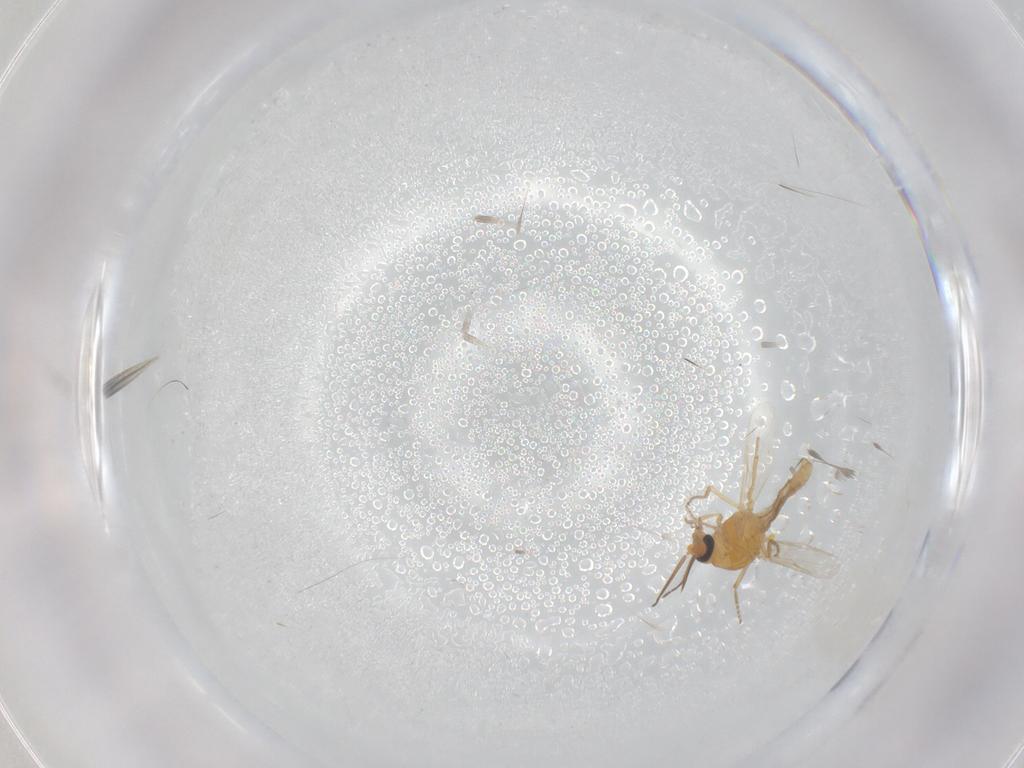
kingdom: Animalia
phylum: Arthropoda
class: Insecta
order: Diptera
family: Ceratopogonidae
